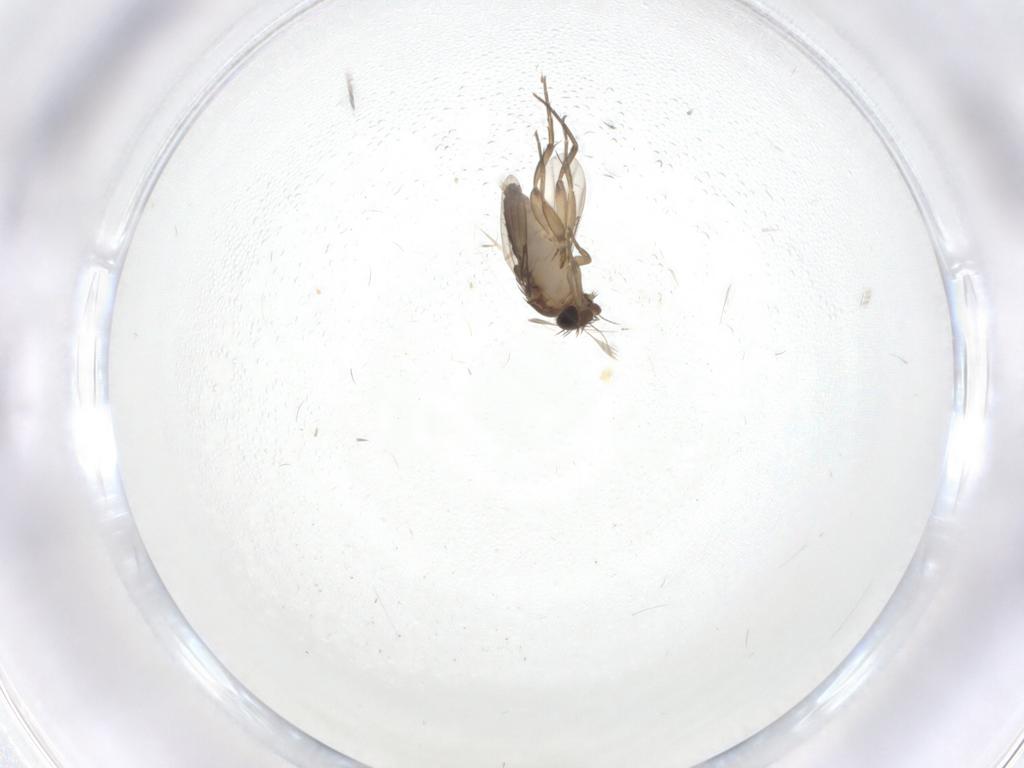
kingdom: Animalia
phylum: Arthropoda
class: Insecta
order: Diptera
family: Phoridae
